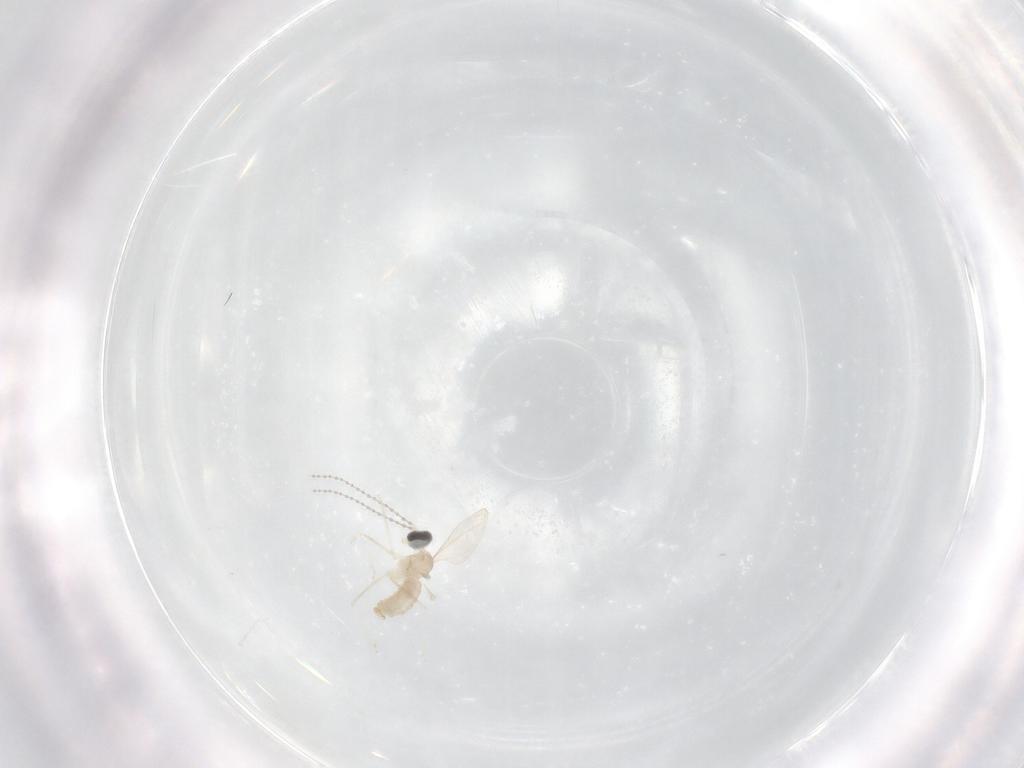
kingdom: Animalia
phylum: Arthropoda
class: Insecta
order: Diptera
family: Cecidomyiidae
